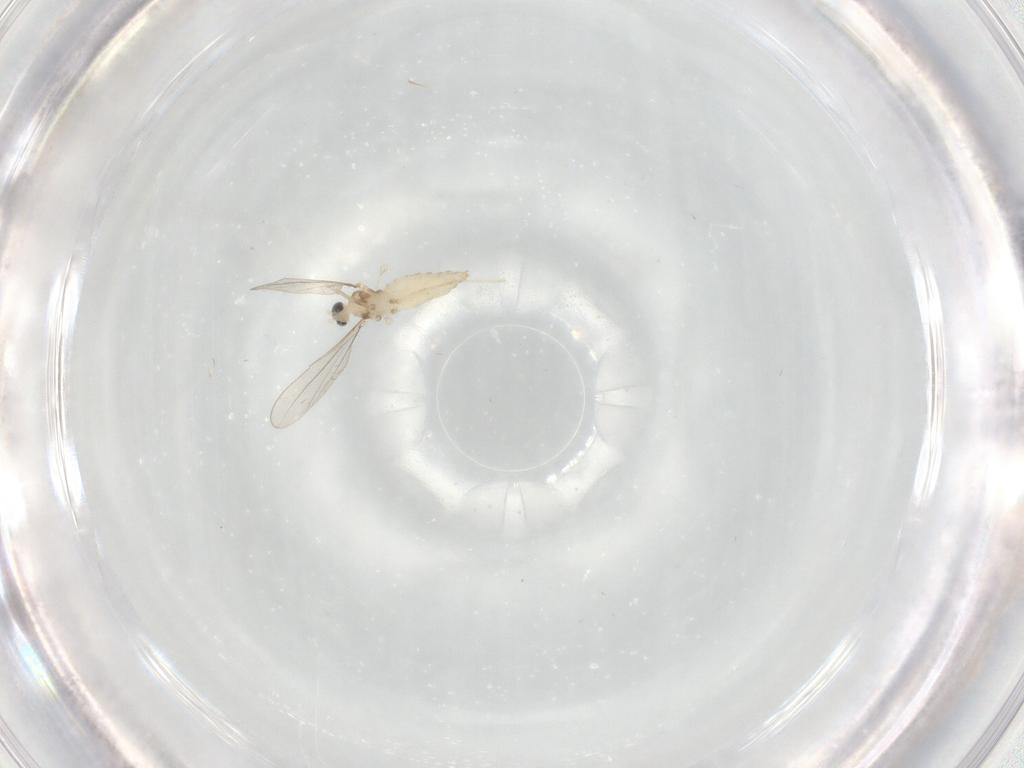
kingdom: Animalia
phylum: Arthropoda
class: Insecta
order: Diptera
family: Cecidomyiidae
